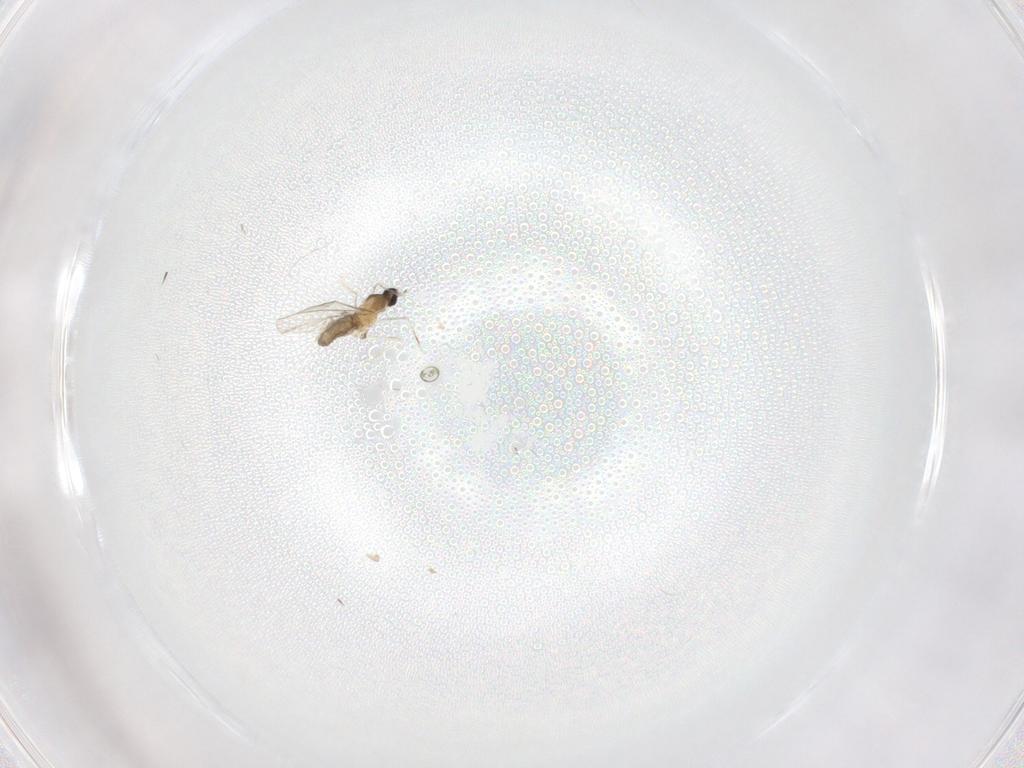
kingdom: Animalia
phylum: Arthropoda
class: Insecta
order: Diptera
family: Cecidomyiidae
